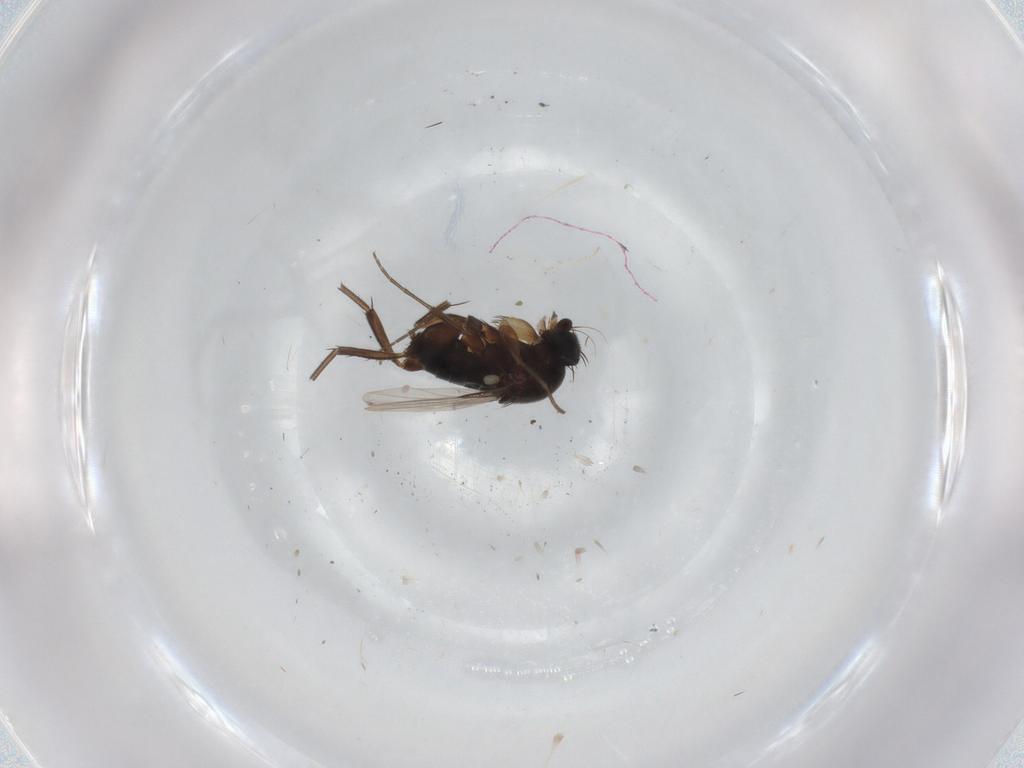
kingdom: Animalia
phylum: Arthropoda
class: Insecta
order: Diptera
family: Phoridae
